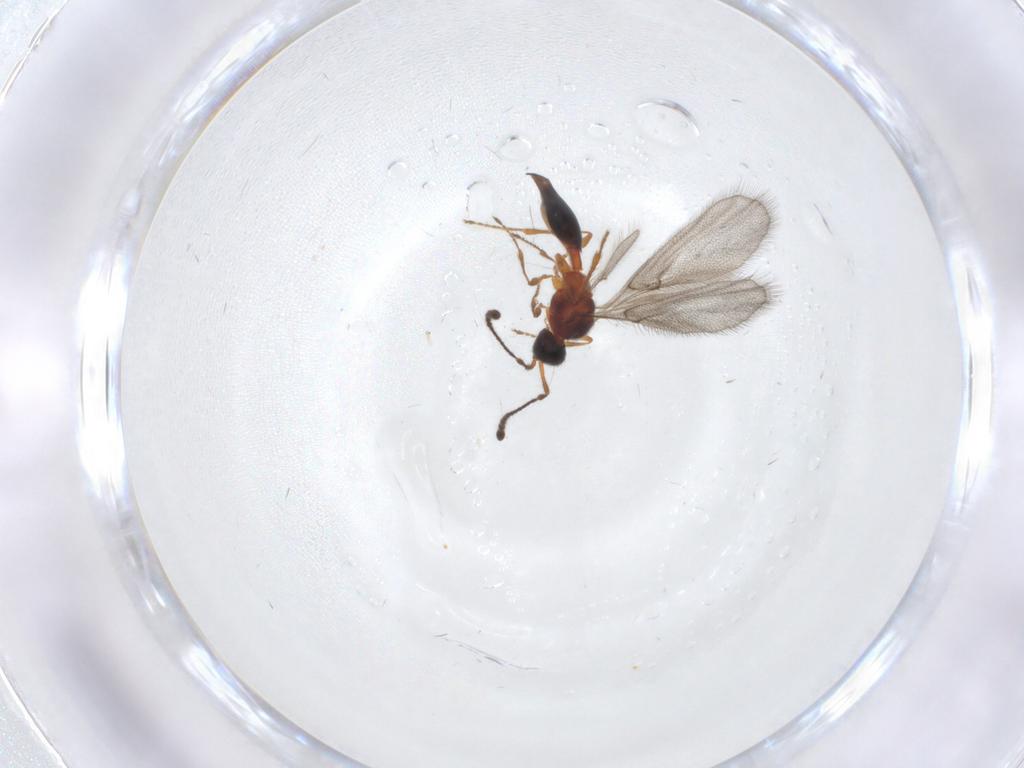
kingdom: Animalia
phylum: Arthropoda
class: Insecta
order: Hymenoptera
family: Diapriidae
